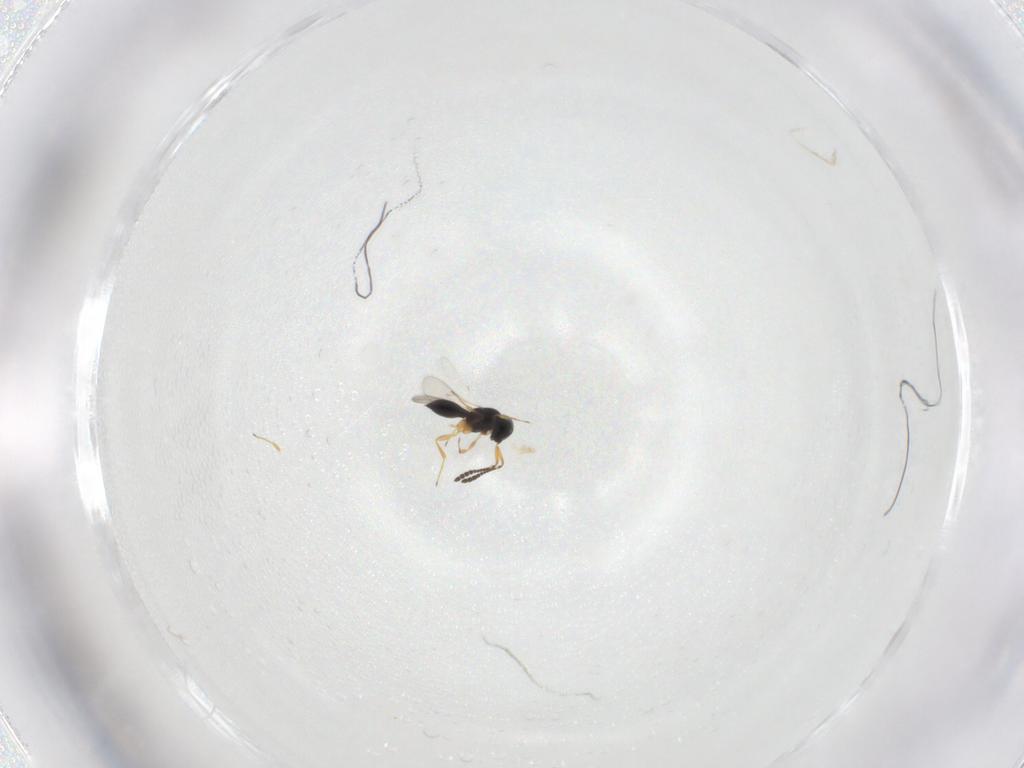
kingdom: Animalia
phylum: Arthropoda
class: Insecta
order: Hymenoptera
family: Scelionidae
